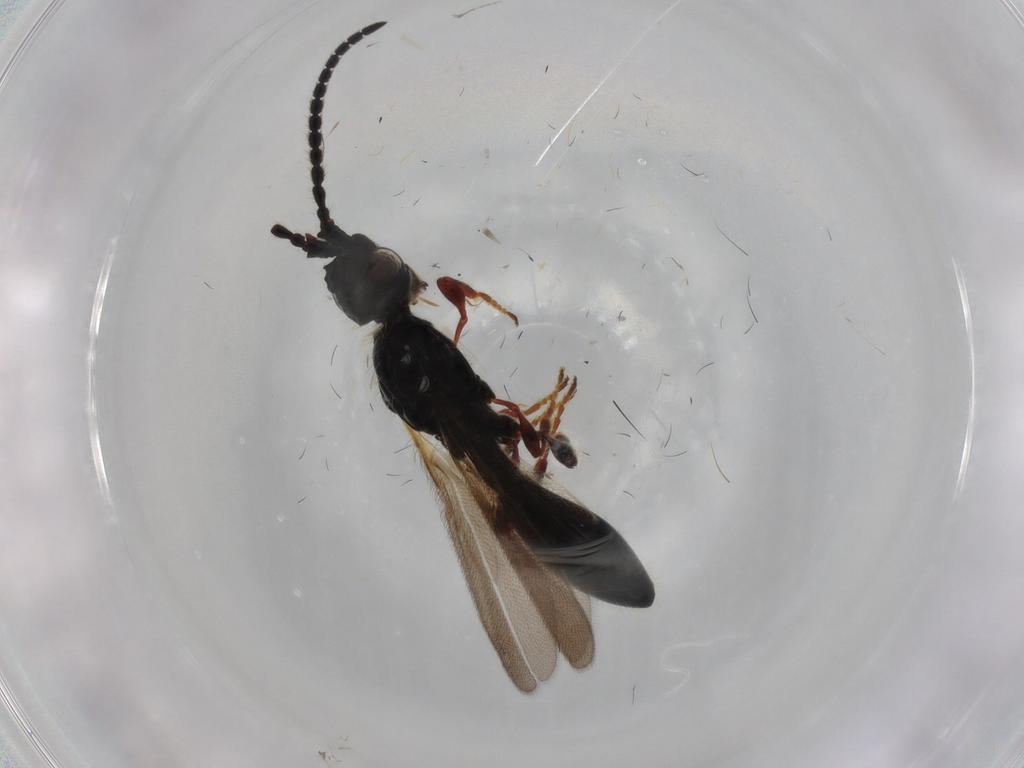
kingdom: Animalia
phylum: Arthropoda
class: Insecta
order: Hymenoptera
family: Diapriidae
